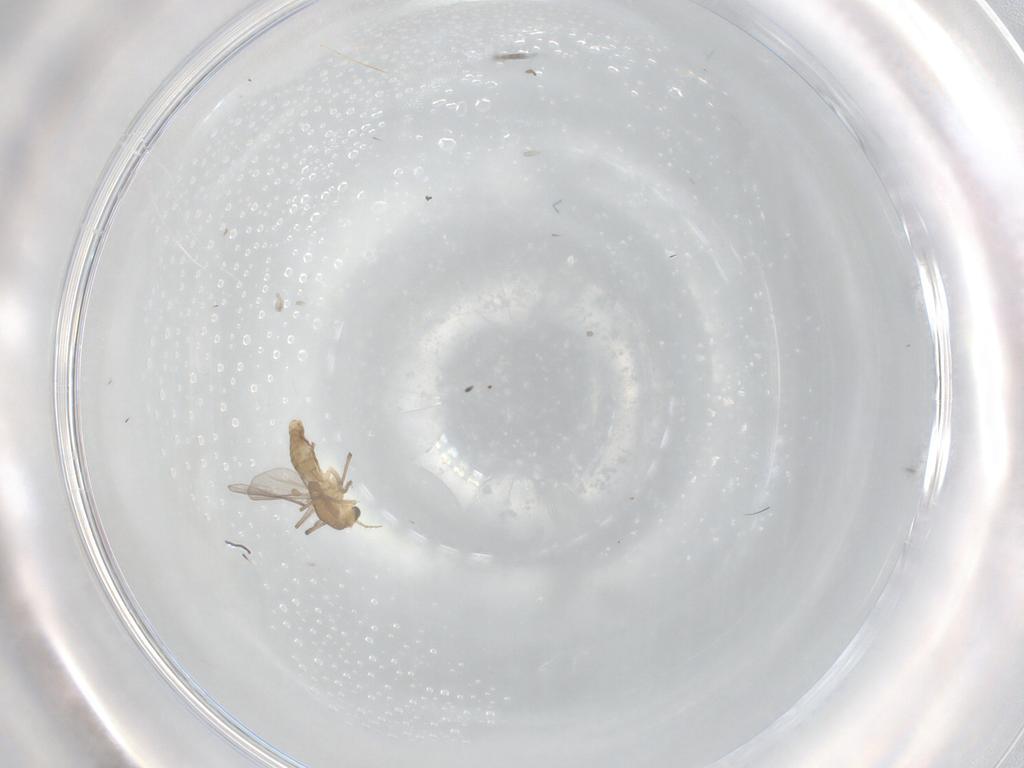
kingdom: Animalia
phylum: Arthropoda
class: Insecta
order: Diptera
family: Chironomidae
